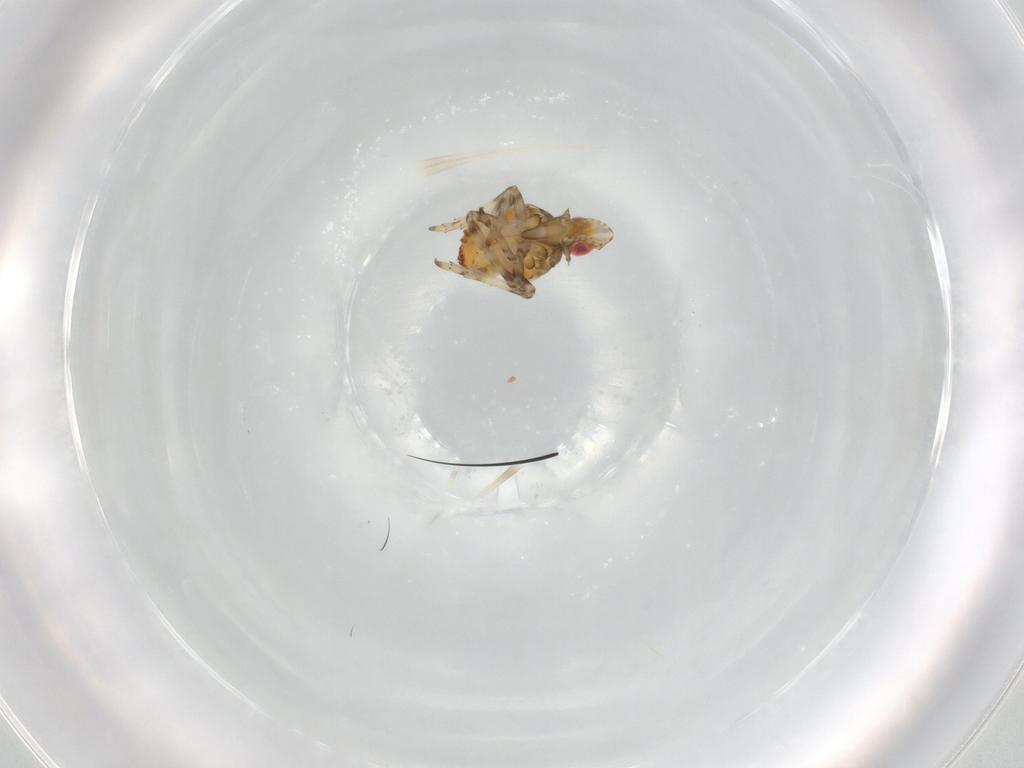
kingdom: Animalia
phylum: Arthropoda
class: Insecta
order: Hemiptera
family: Tropiduchidae
